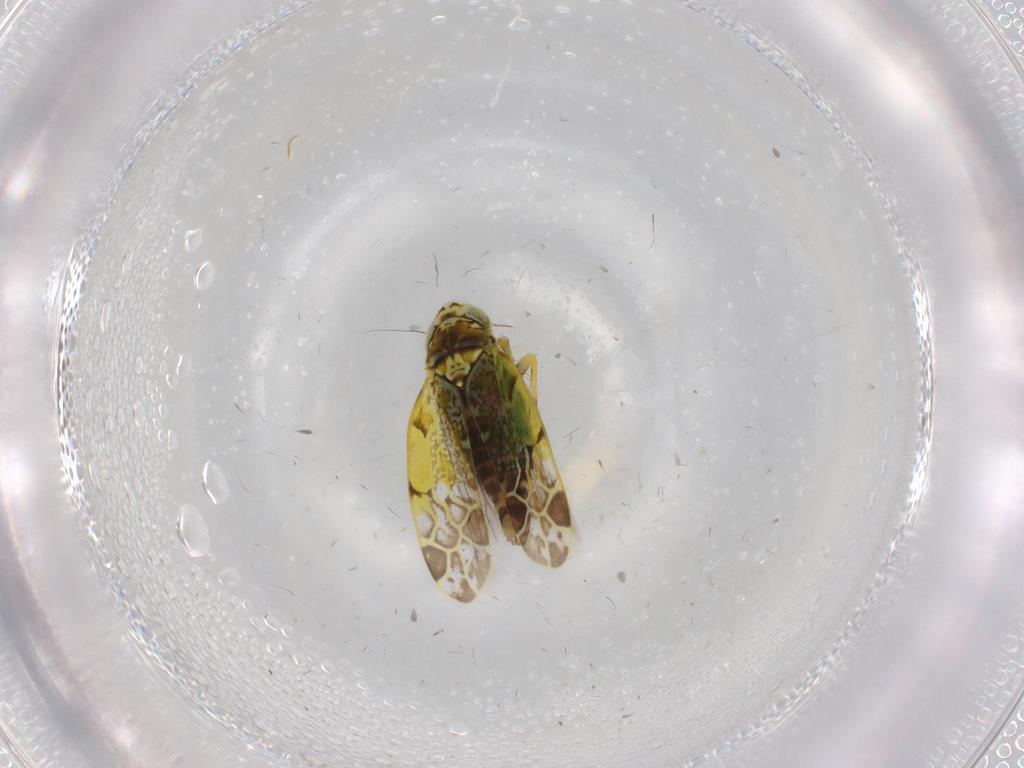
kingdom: Animalia
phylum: Arthropoda
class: Insecta
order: Hemiptera
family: Cicadellidae
